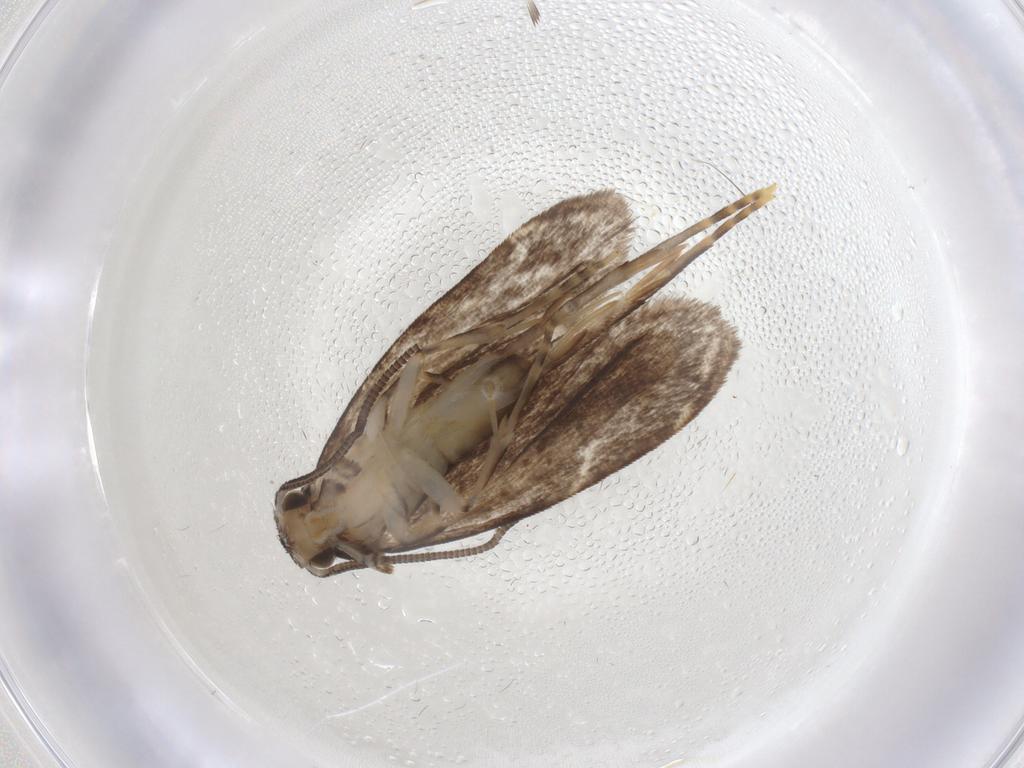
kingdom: Animalia
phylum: Arthropoda
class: Insecta
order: Lepidoptera
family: Dryadaulidae
